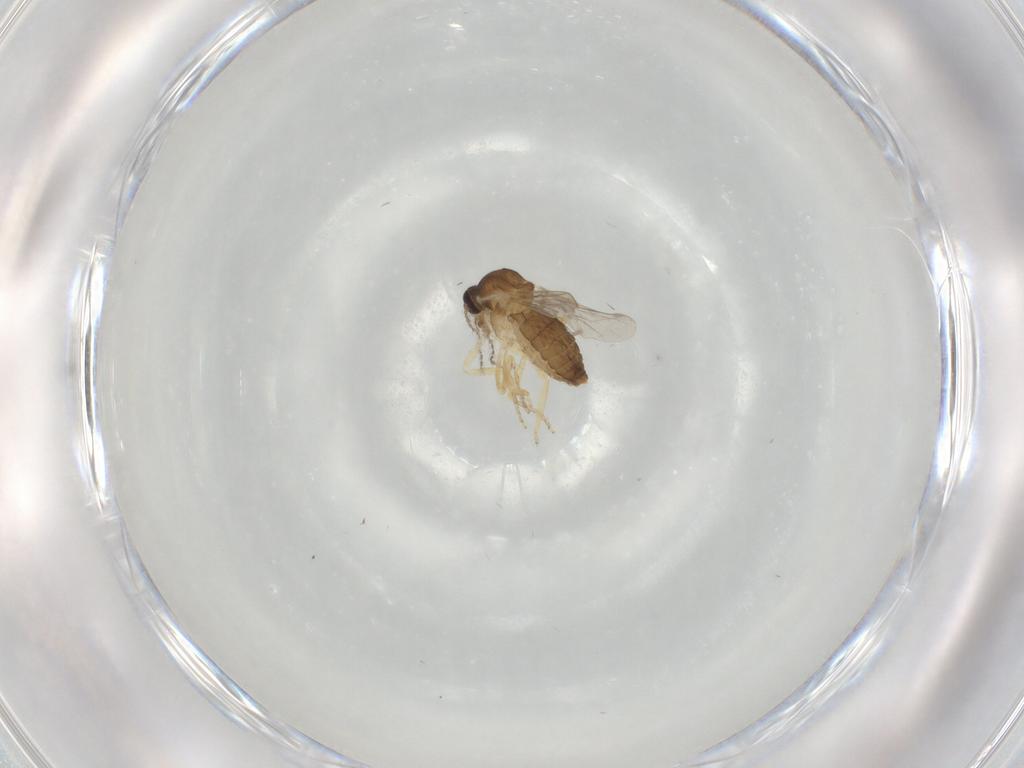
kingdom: Animalia
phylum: Arthropoda
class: Insecta
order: Diptera
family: Ceratopogonidae
